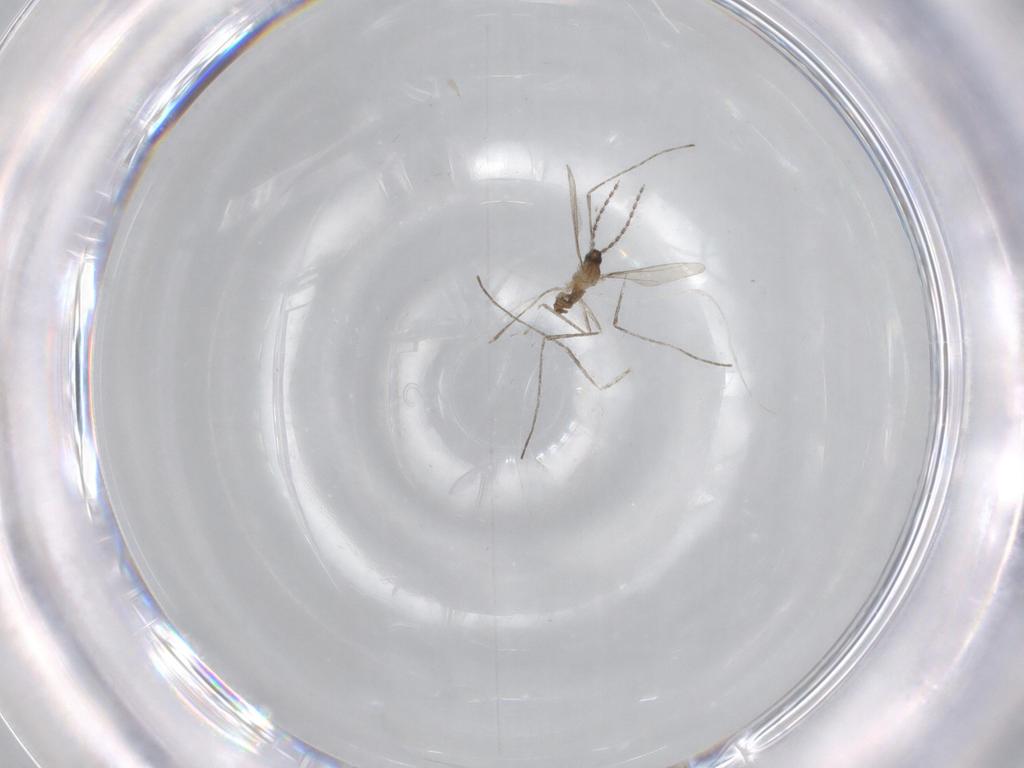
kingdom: Animalia
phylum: Arthropoda
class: Insecta
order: Diptera
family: Cecidomyiidae
